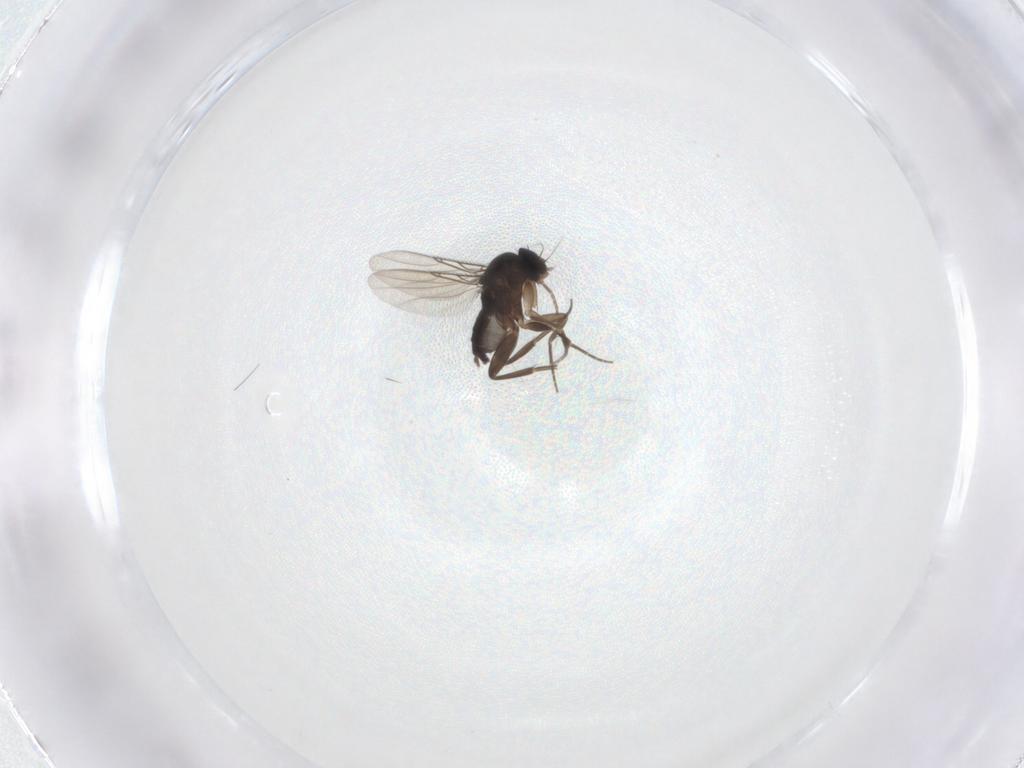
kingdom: Animalia
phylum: Arthropoda
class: Insecta
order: Diptera
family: Phoridae
